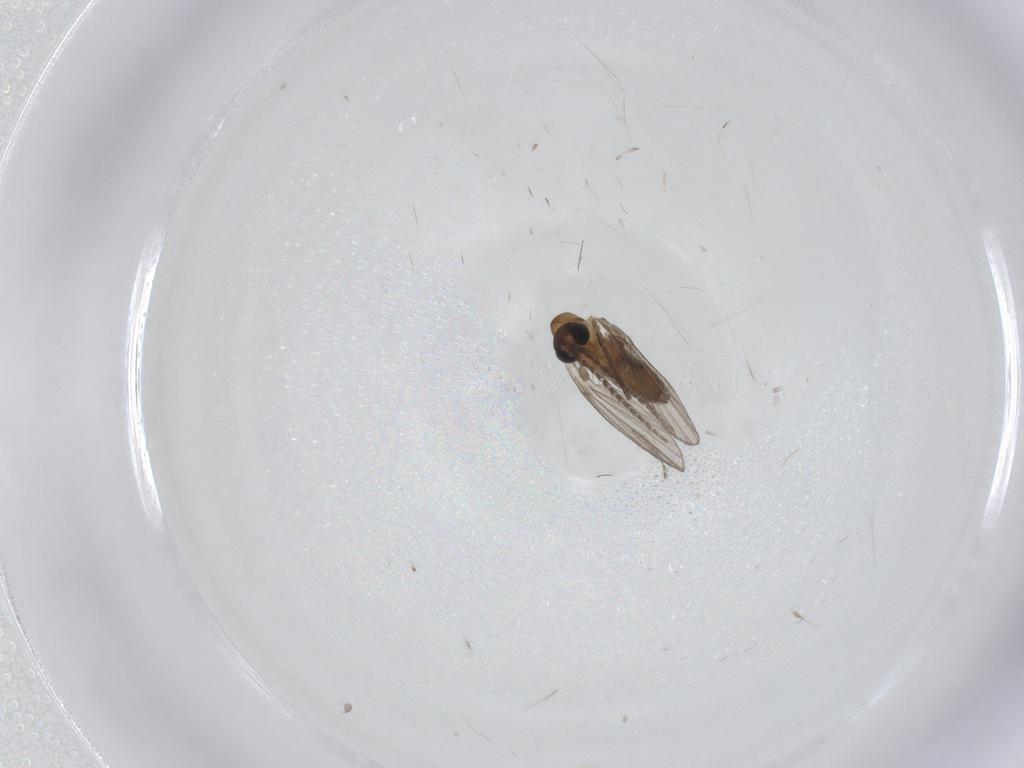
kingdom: Animalia
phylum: Arthropoda
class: Insecta
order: Diptera
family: Psychodidae
